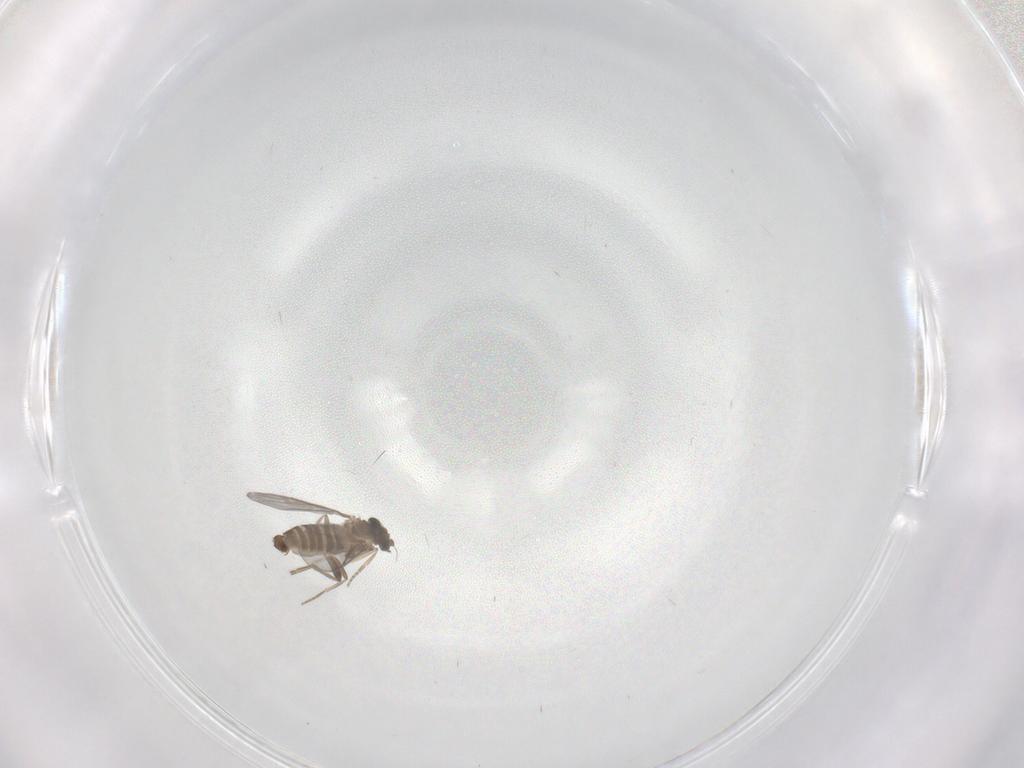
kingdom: Animalia
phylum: Arthropoda
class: Insecta
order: Diptera
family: Phoridae
